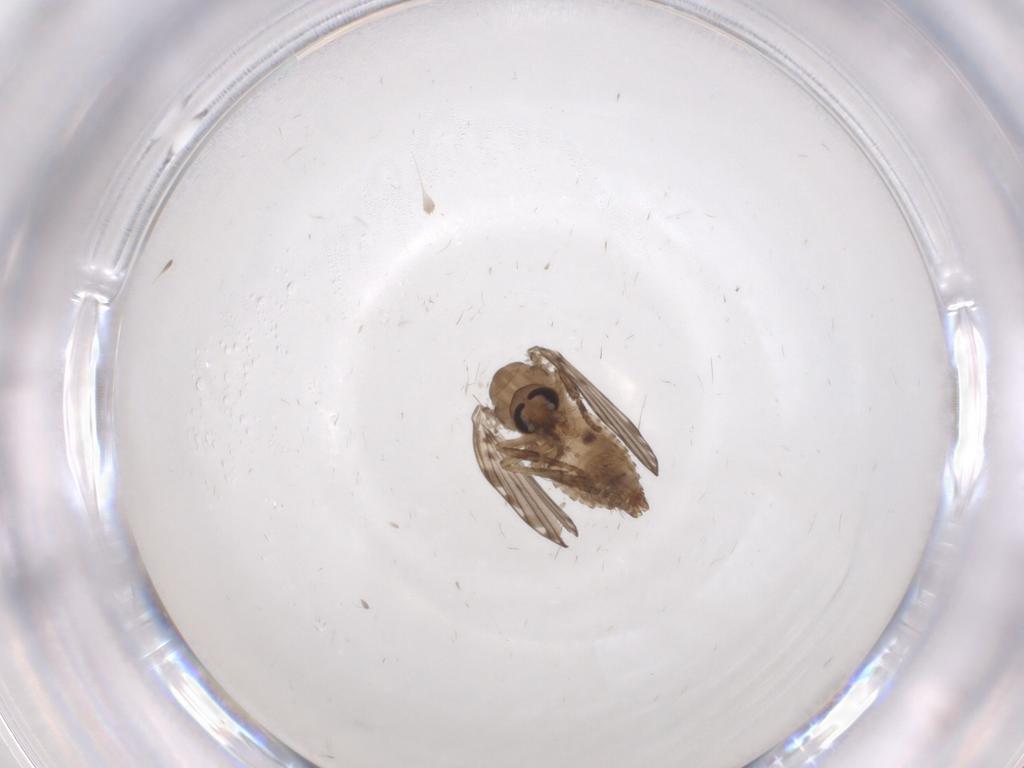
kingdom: Animalia
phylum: Arthropoda
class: Insecta
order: Diptera
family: Psychodidae
